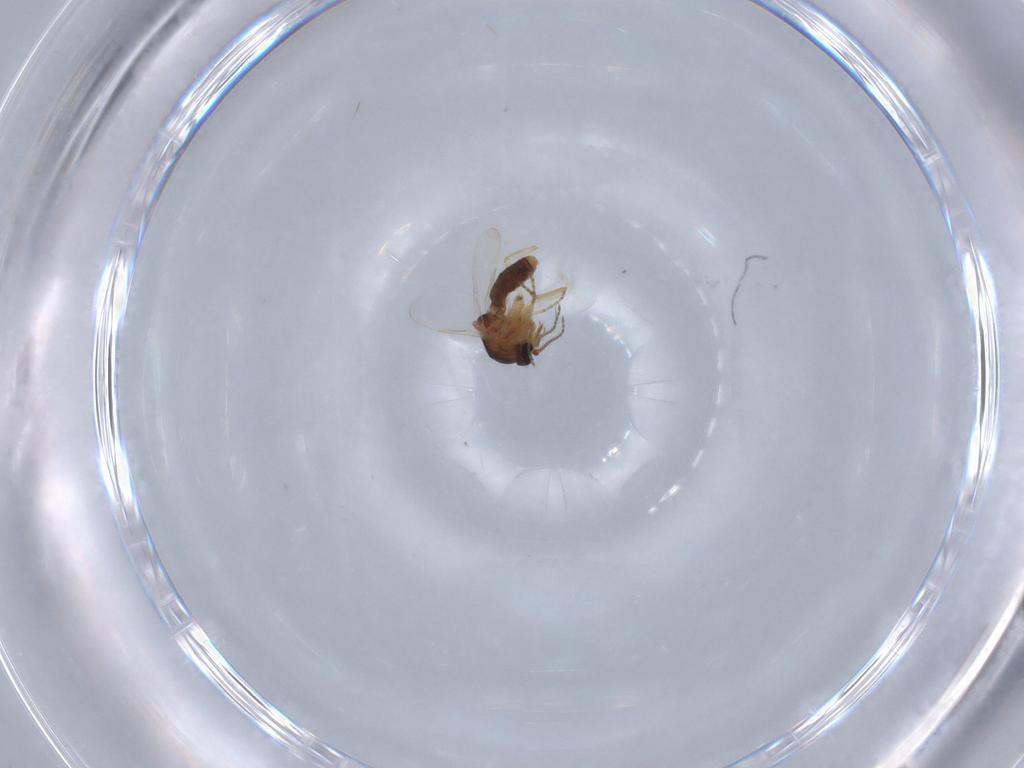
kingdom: Animalia
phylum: Arthropoda
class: Insecta
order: Diptera
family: Ceratopogonidae
